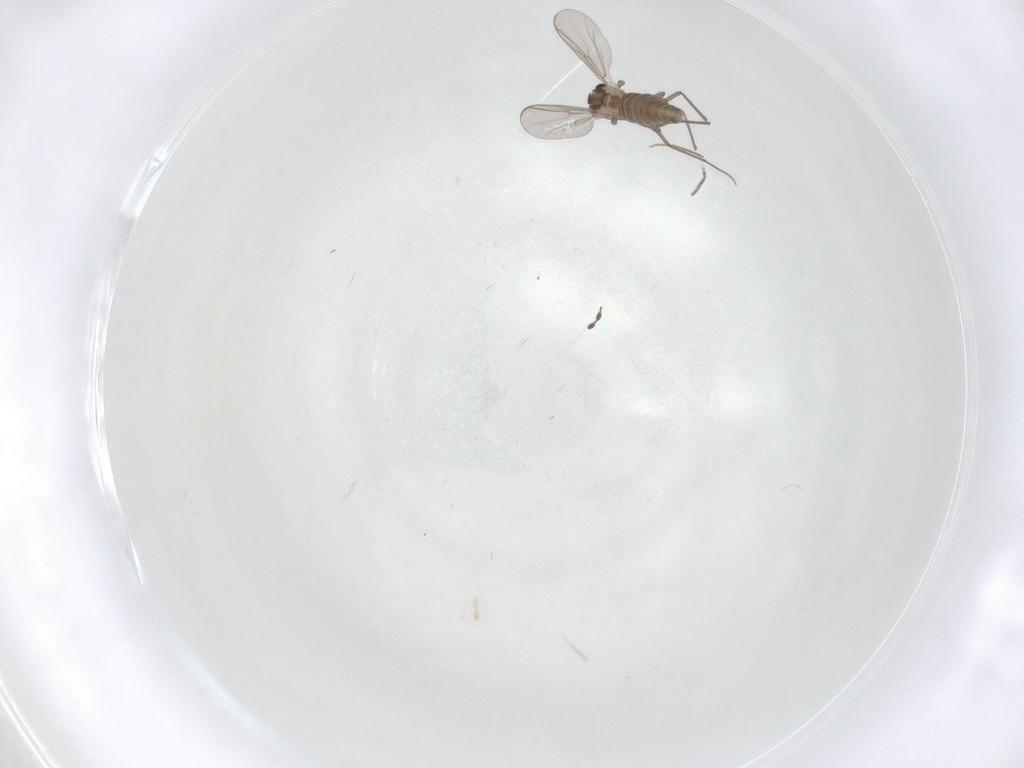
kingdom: Animalia
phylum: Arthropoda
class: Insecta
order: Diptera
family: Chironomidae
